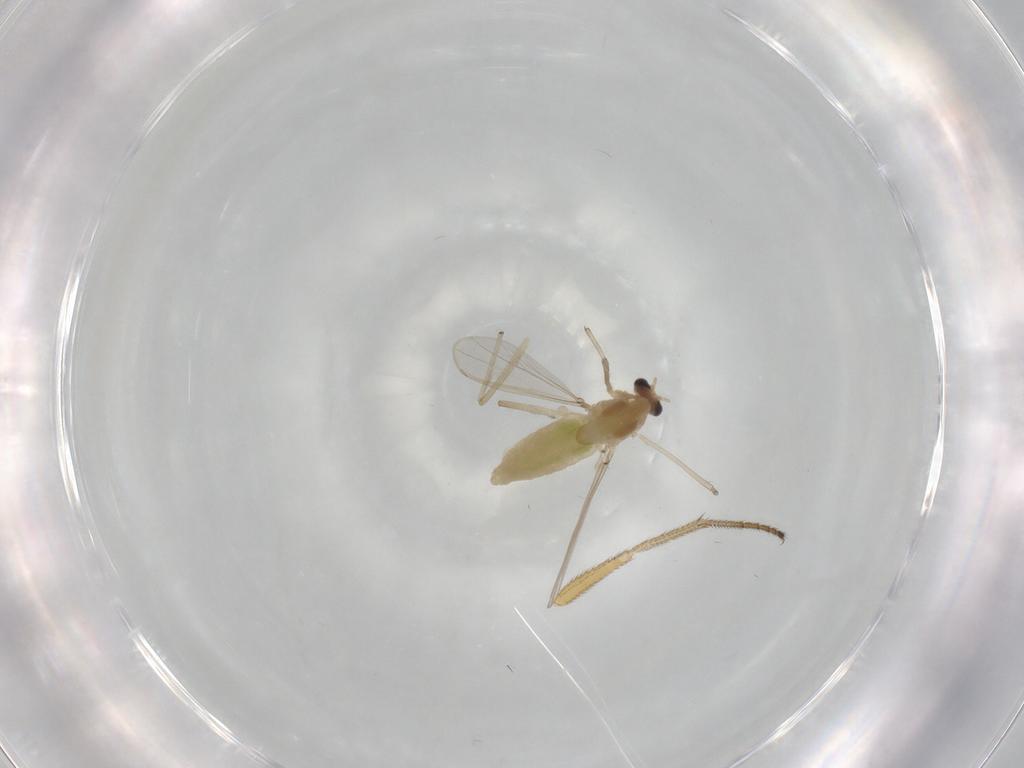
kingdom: Animalia
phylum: Arthropoda
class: Insecta
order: Diptera
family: Chironomidae
